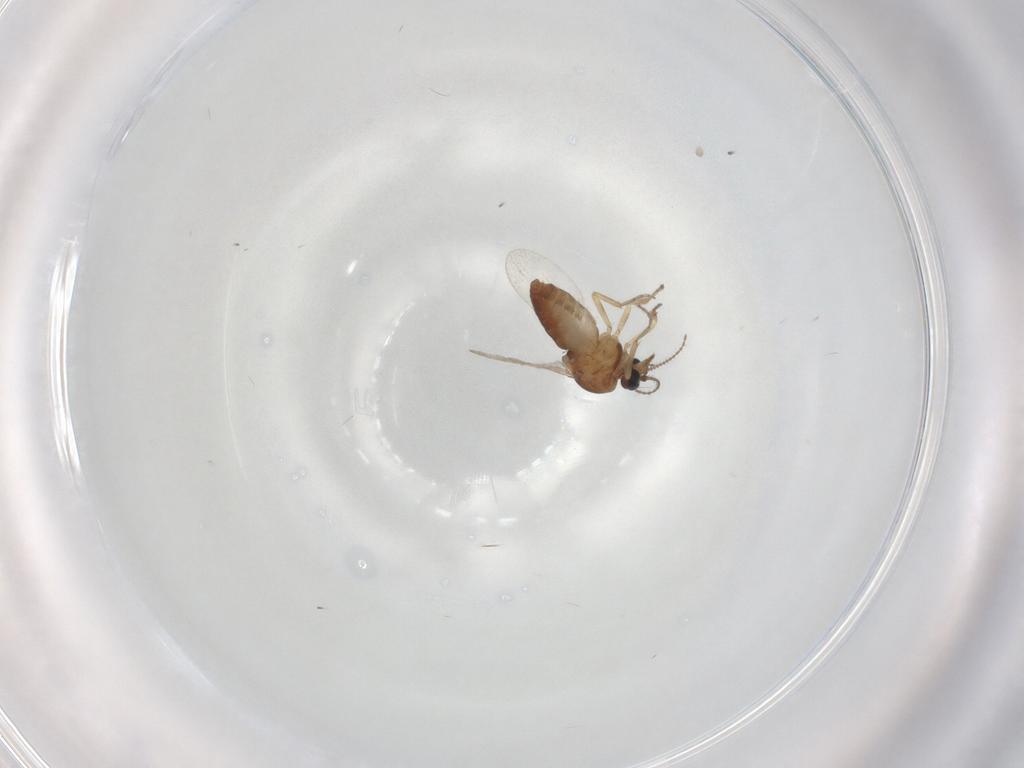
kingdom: Animalia
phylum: Arthropoda
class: Insecta
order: Diptera
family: Ceratopogonidae
